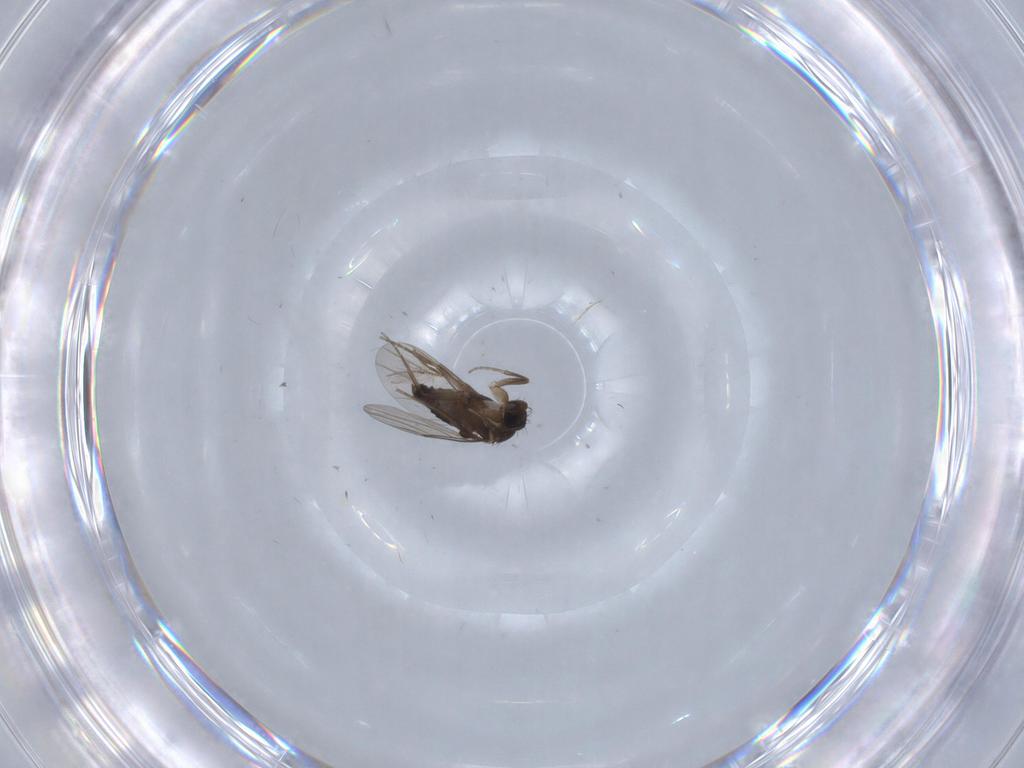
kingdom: Animalia
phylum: Arthropoda
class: Insecta
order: Diptera
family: Phoridae
